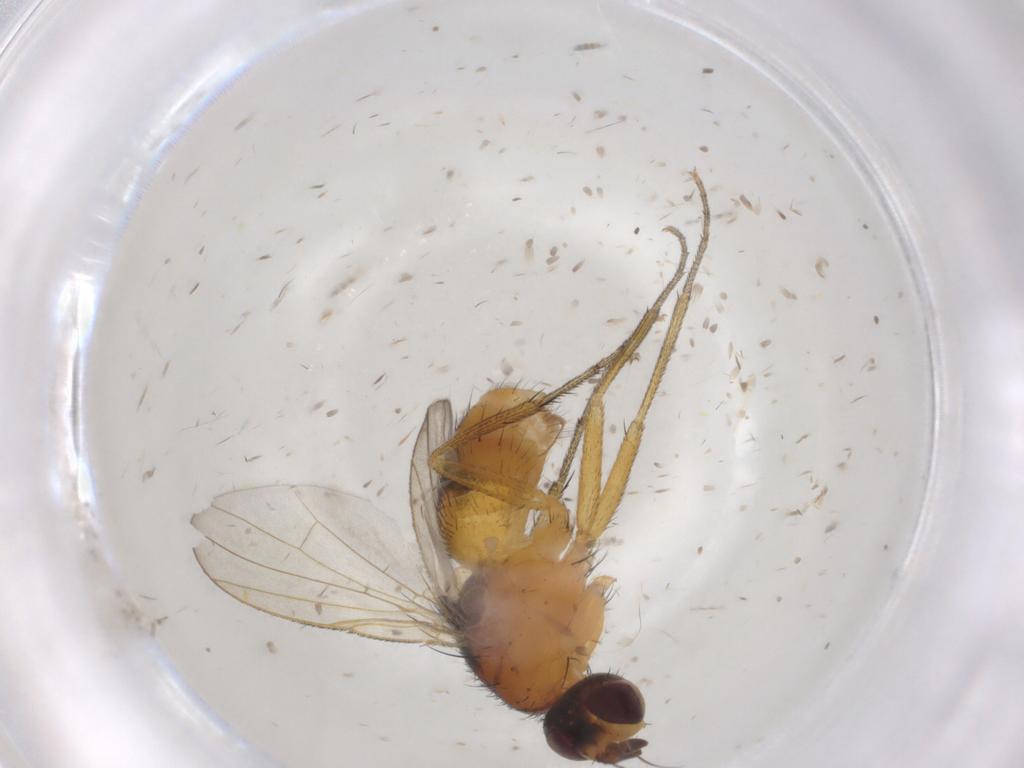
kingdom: Animalia
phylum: Arthropoda
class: Insecta
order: Diptera
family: Muscidae
